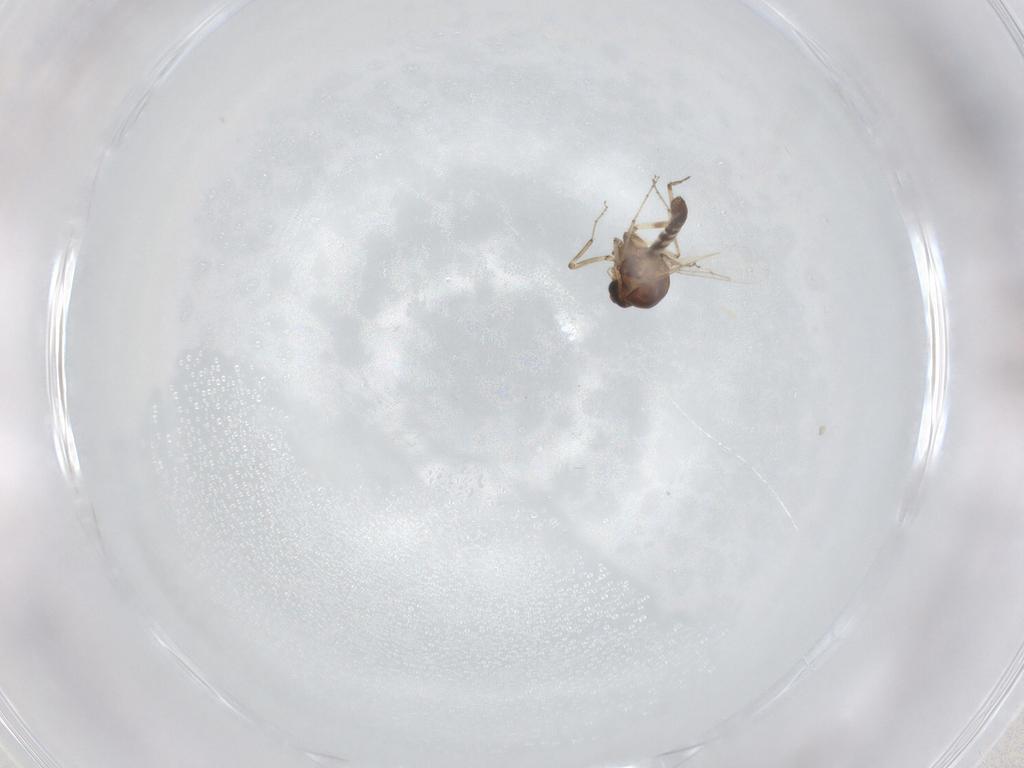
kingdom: Animalia
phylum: Arthropoda
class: Insecta
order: Diptera
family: Ceratopogonidae
